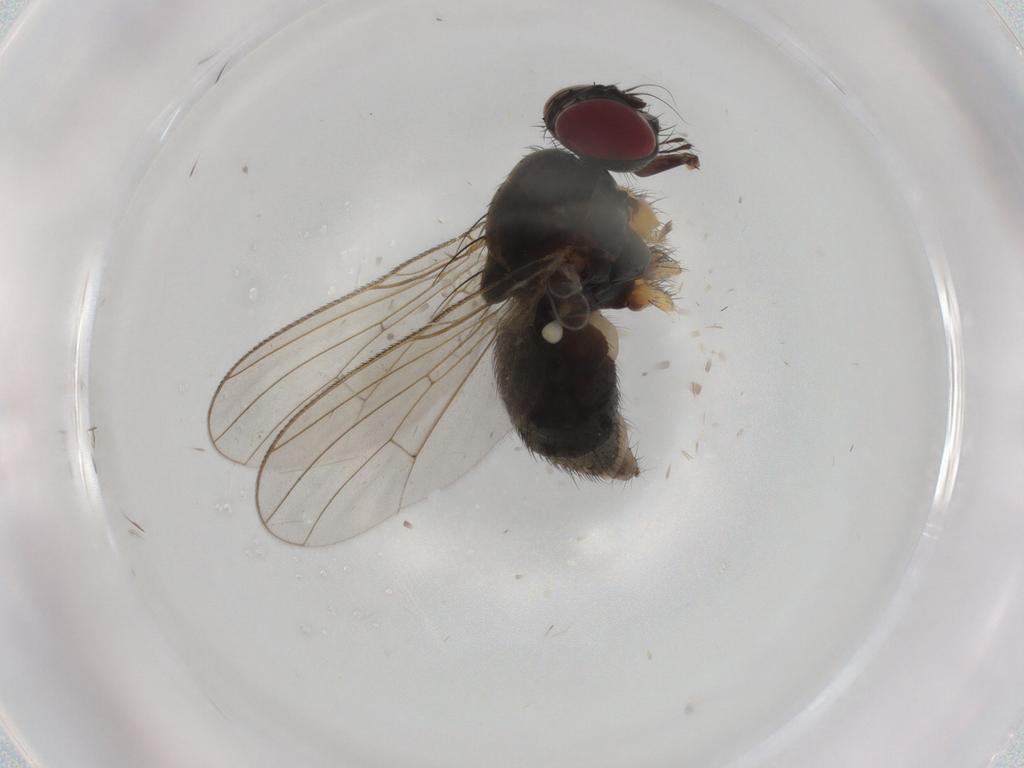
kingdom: Animalia
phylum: Arthropoda
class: Insecta
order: Diptera
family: Muscidae
